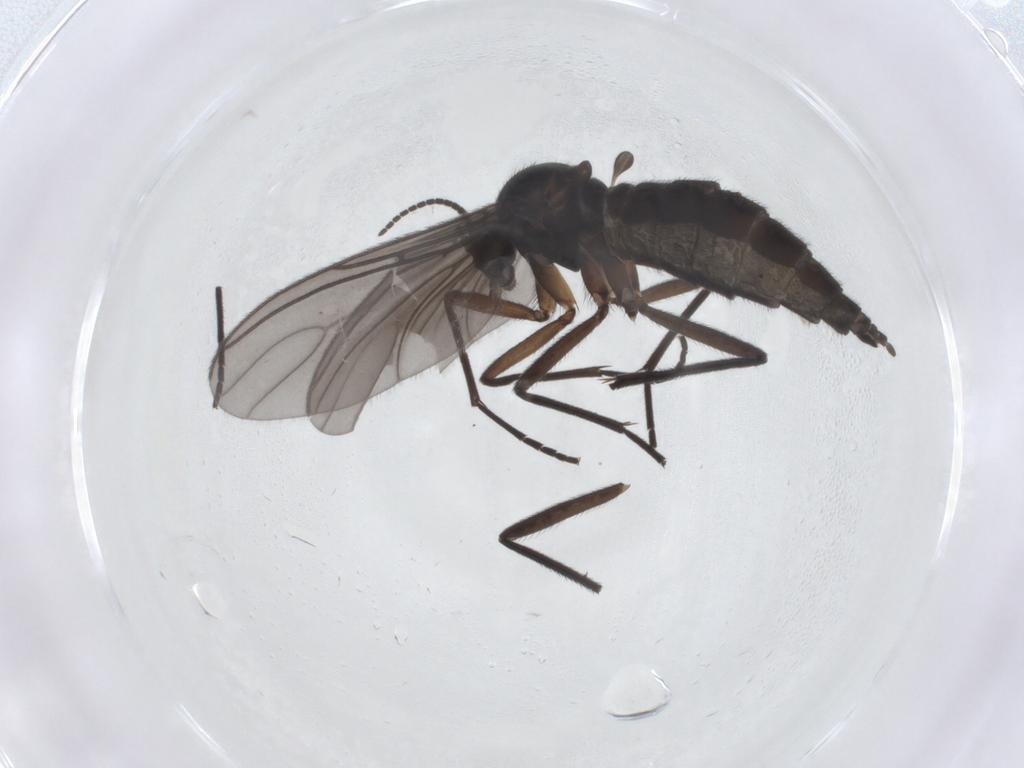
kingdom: Animalia
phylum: Arthropoda
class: Insecta
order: Diptera
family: Sciaridae
